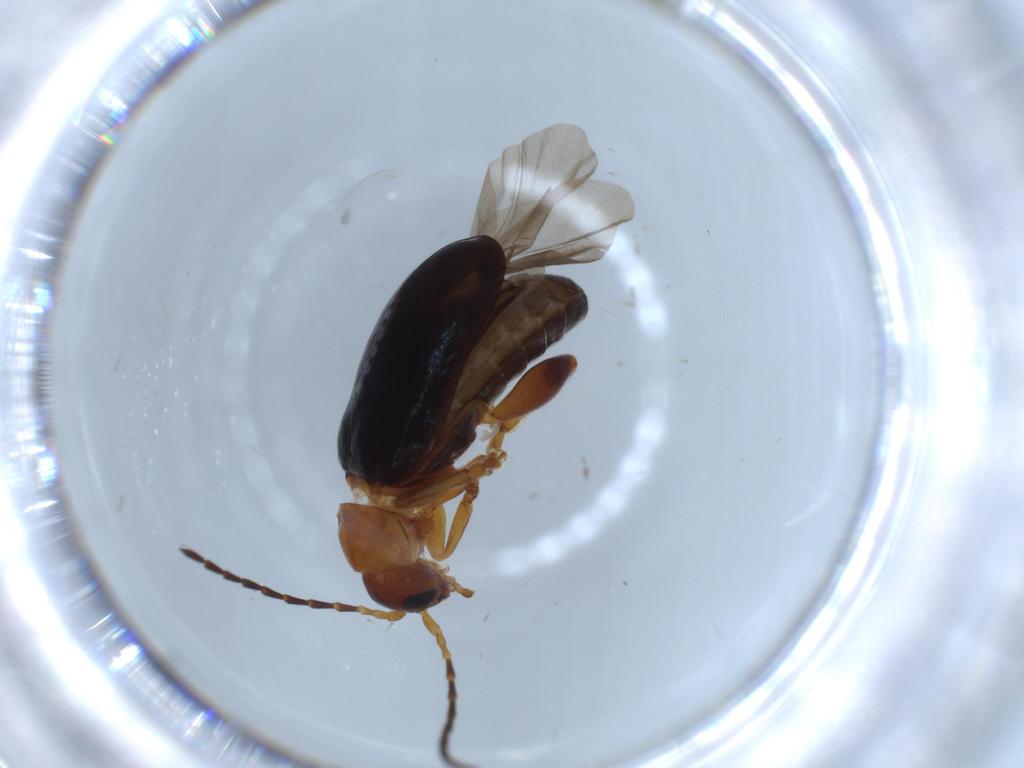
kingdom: Animalia
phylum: Arthropoda
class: Insecta
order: Coleoptera
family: Chrysomelidae
